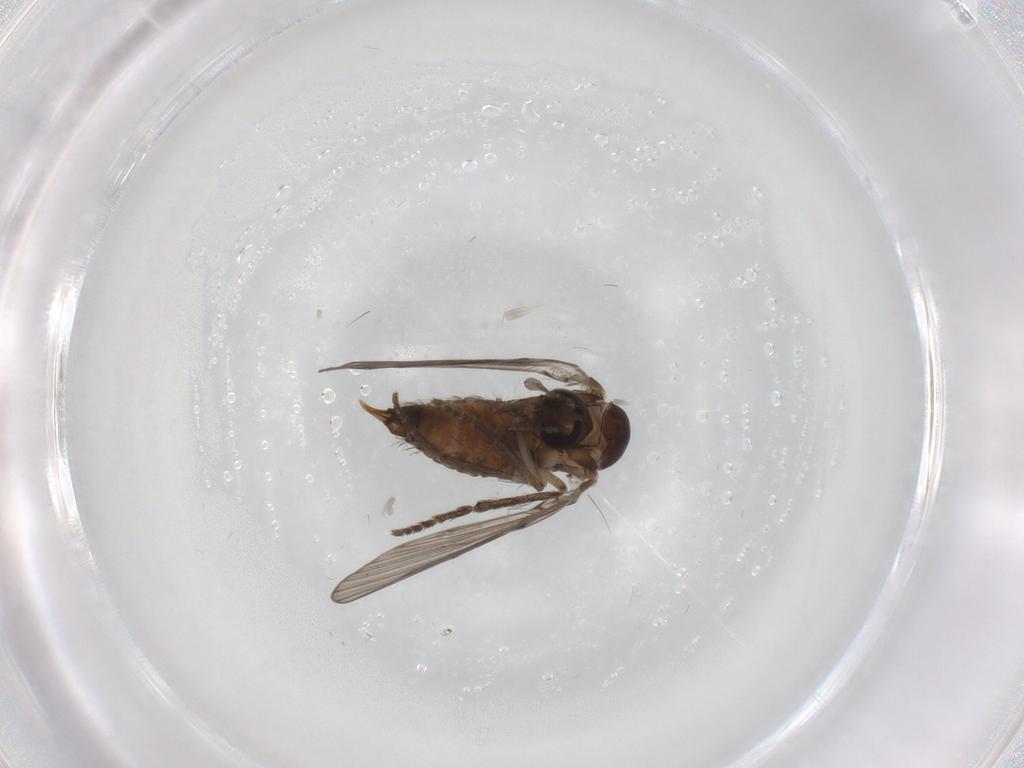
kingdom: Animalia
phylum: Arthropoda
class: Insecta
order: Diptera
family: Psychodidae
